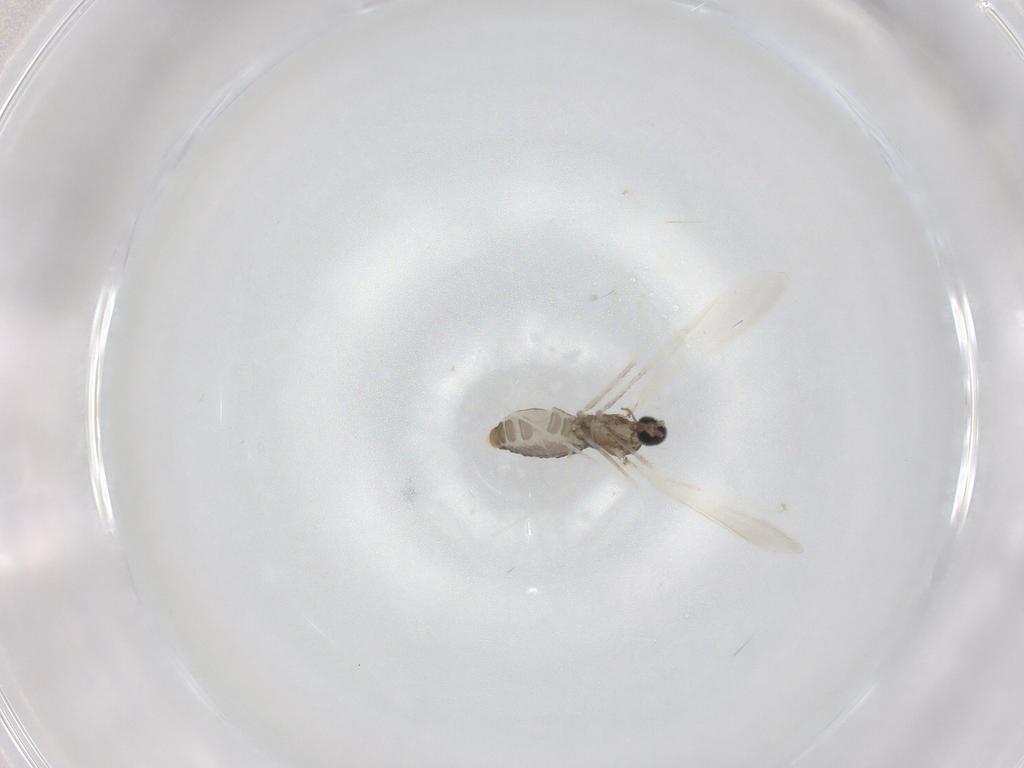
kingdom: Animalia
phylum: Arthropoda
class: Insecta
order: Diptera
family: Cecidomyiidae
